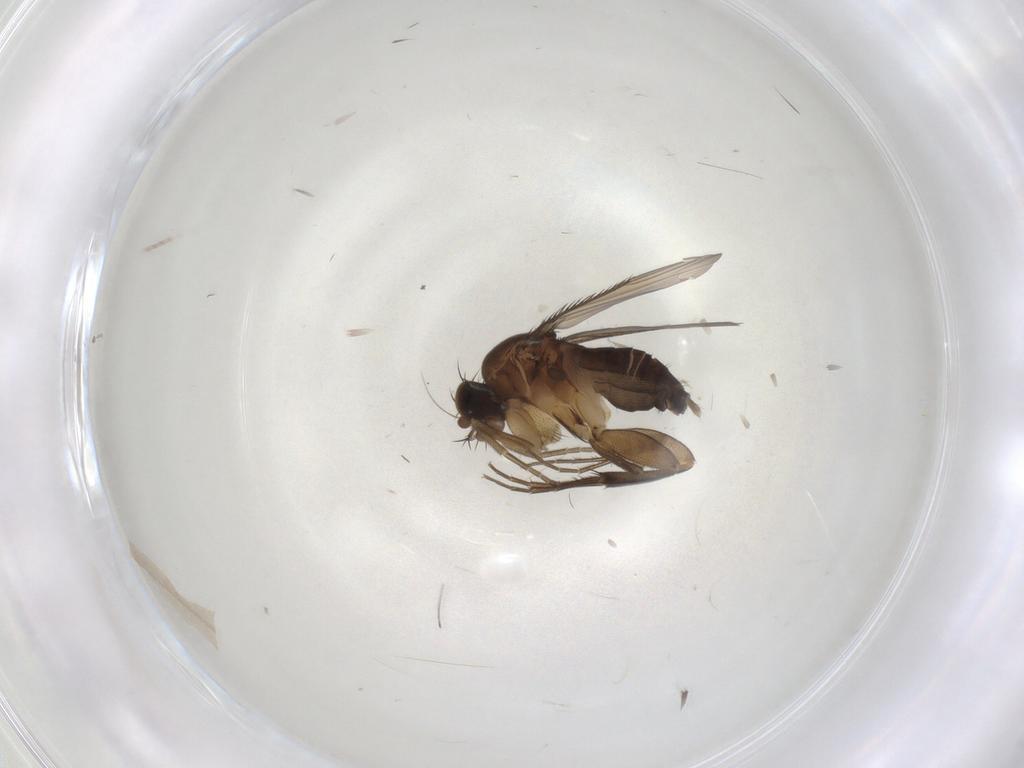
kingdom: Animalia
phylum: Arthropoda
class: Insecta
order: Diptera
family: Phoridae
